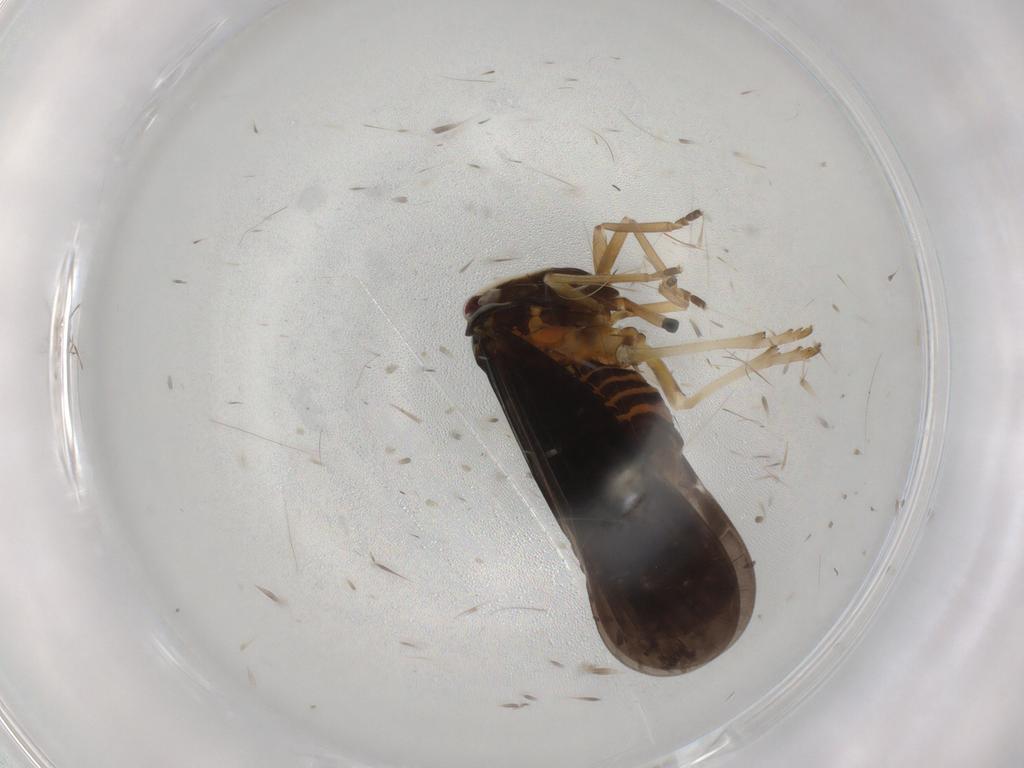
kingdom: Animalia
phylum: Arthropoda
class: Insecta
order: Hemiptera
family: Derbidae
